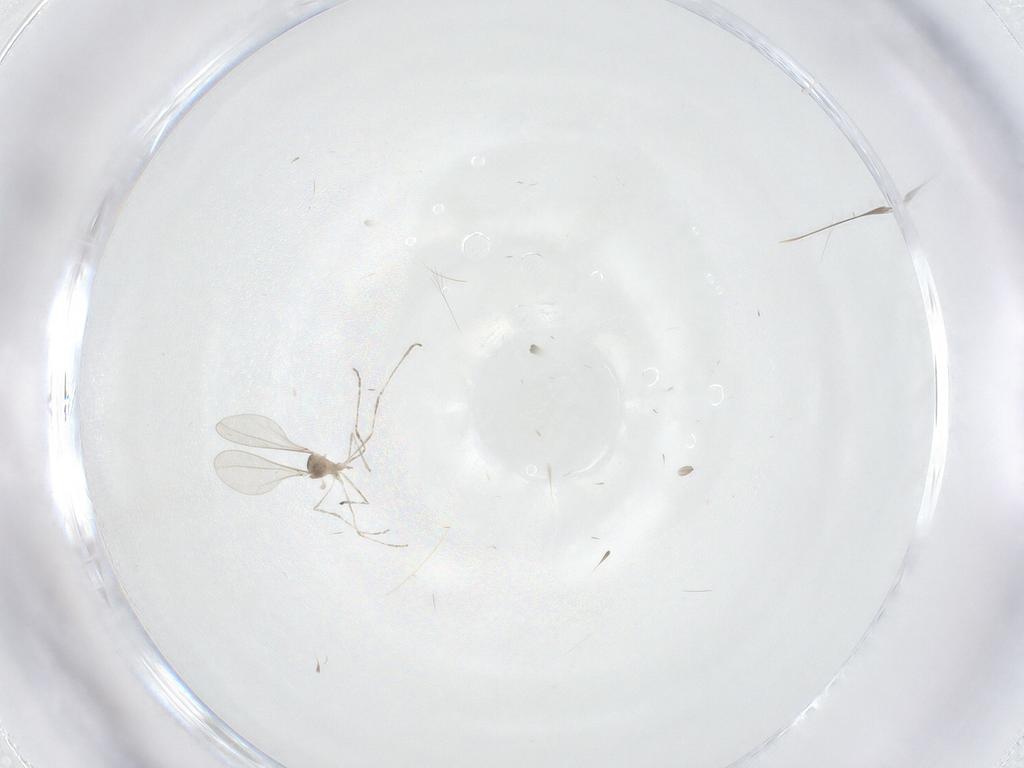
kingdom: Animalia
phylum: Arthropoda
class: Insecta
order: Diptera
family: Cecidomyiidae
